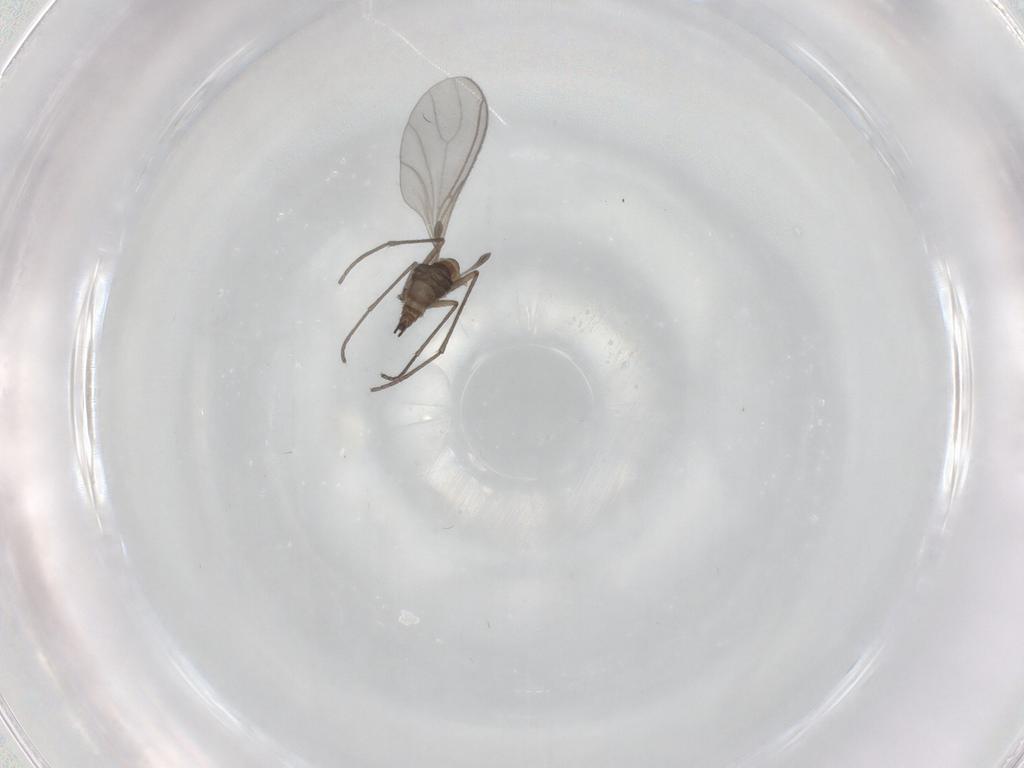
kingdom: Animalia
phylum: Arthropoda
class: Insecta
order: Diptera
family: Sciaridae
